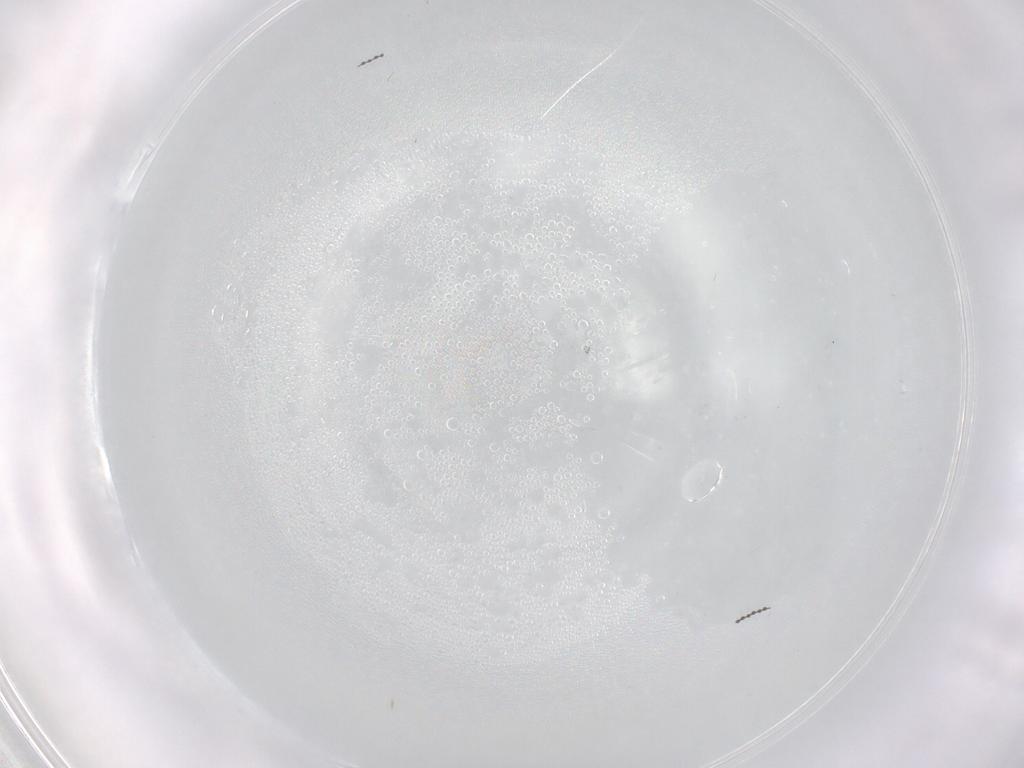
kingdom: Animalia
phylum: Arthropoda
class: Insecta
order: Diptera
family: Cecidomyiidae
